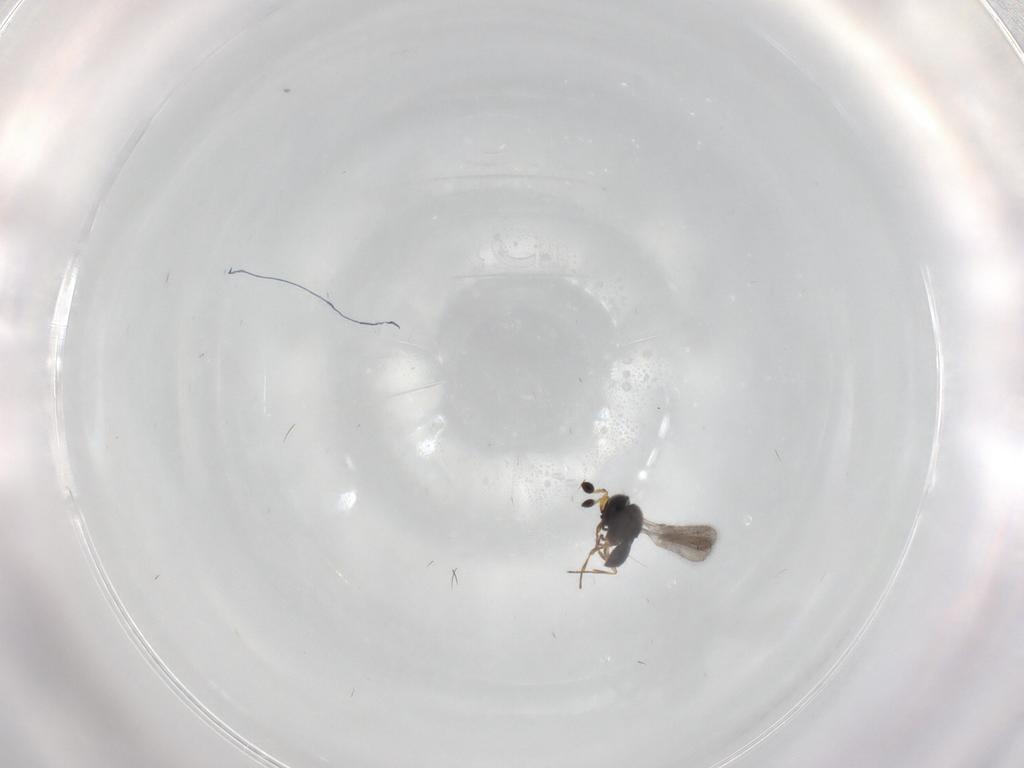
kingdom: Animalia
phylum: Arthropoda
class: Insecta
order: Hymenoptera
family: Scelionidae
